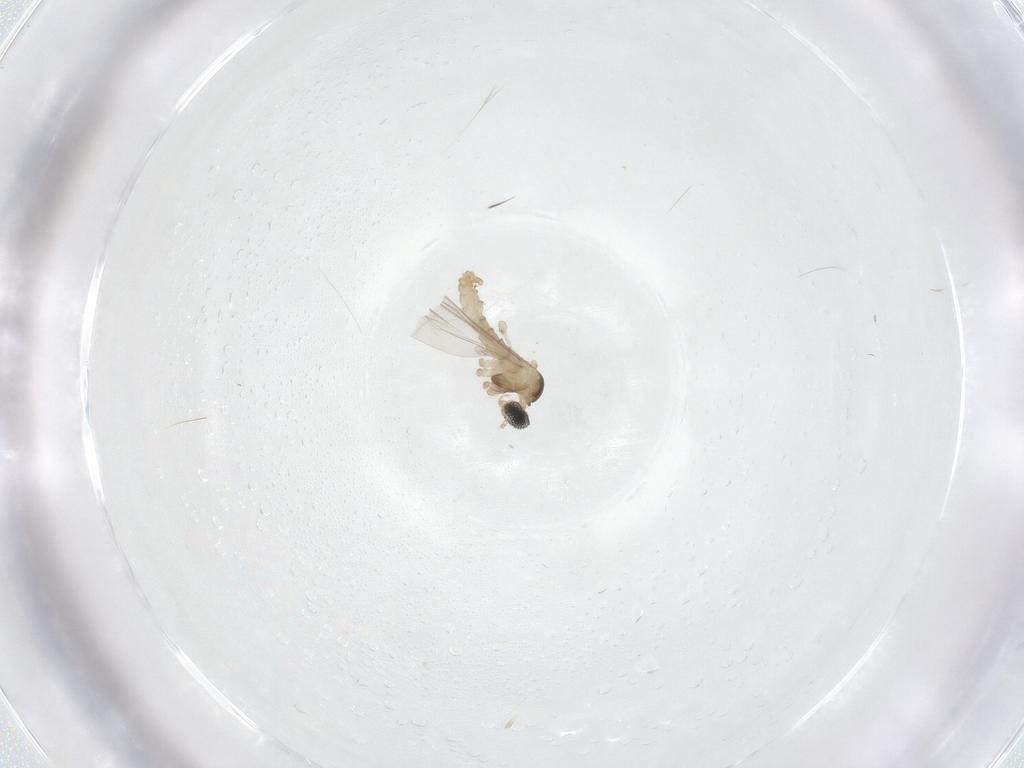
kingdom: Animalia
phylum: Arthropoda
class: Insecta
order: Diptera
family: Cecidomyiidae
